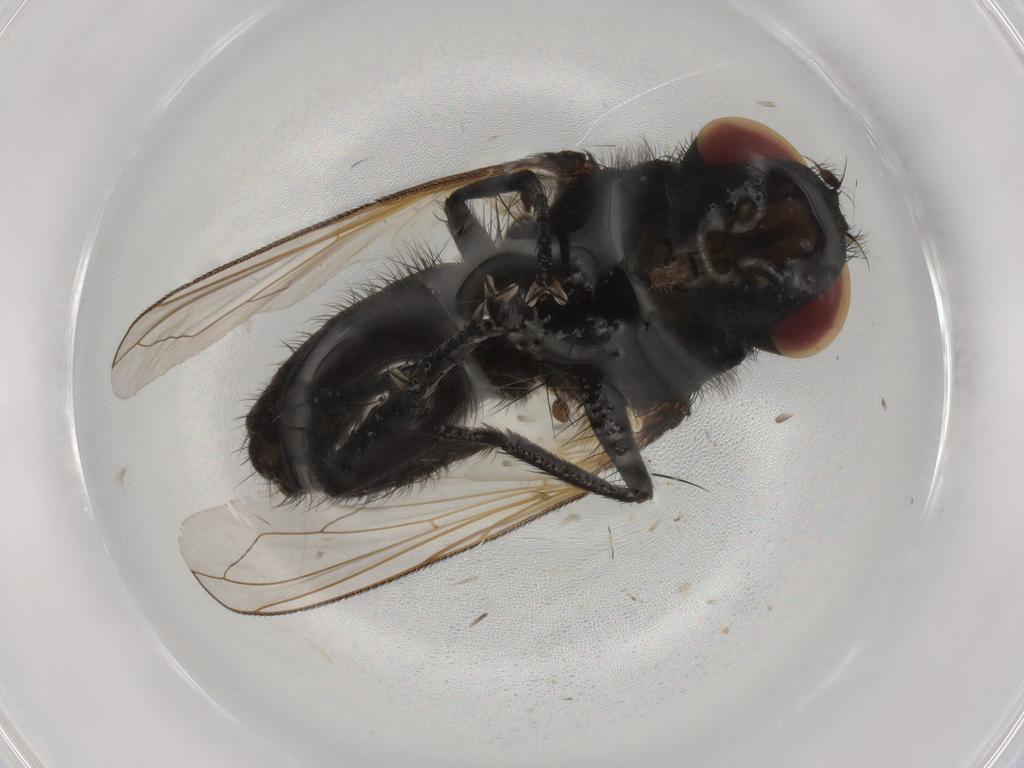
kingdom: Animalia
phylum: Arthropoda
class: Insecta
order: Diptera
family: Tachinidae
